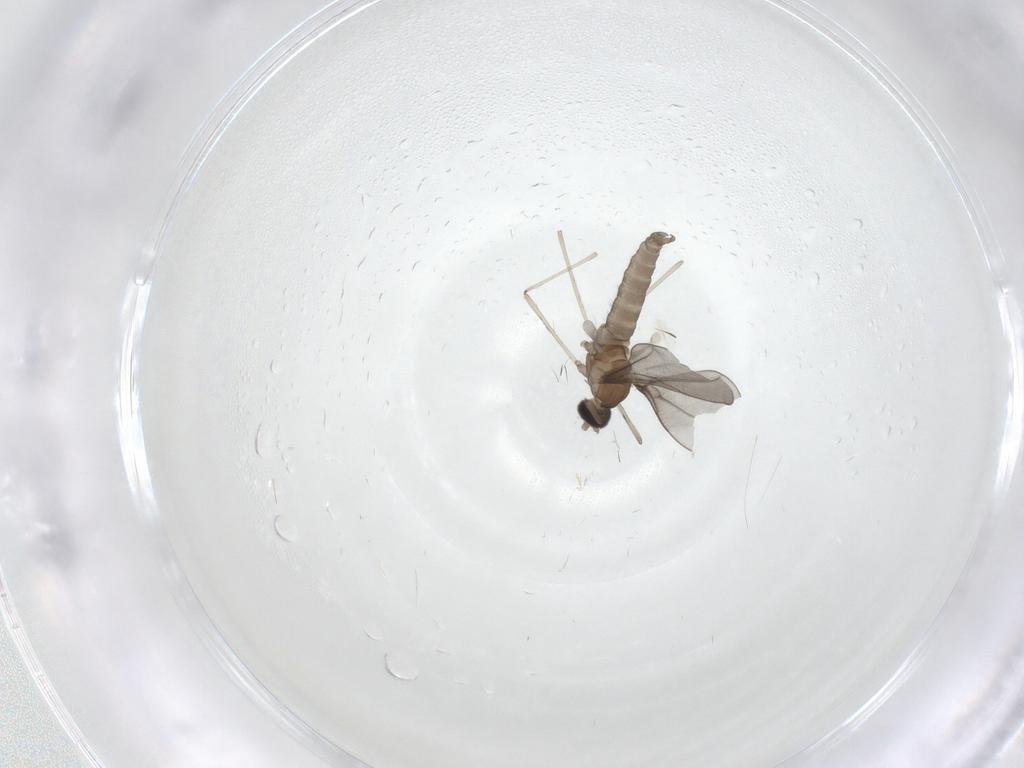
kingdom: Animalia
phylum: Arthropoda
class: Insecta
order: Diptera
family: Cecidomyiidae
